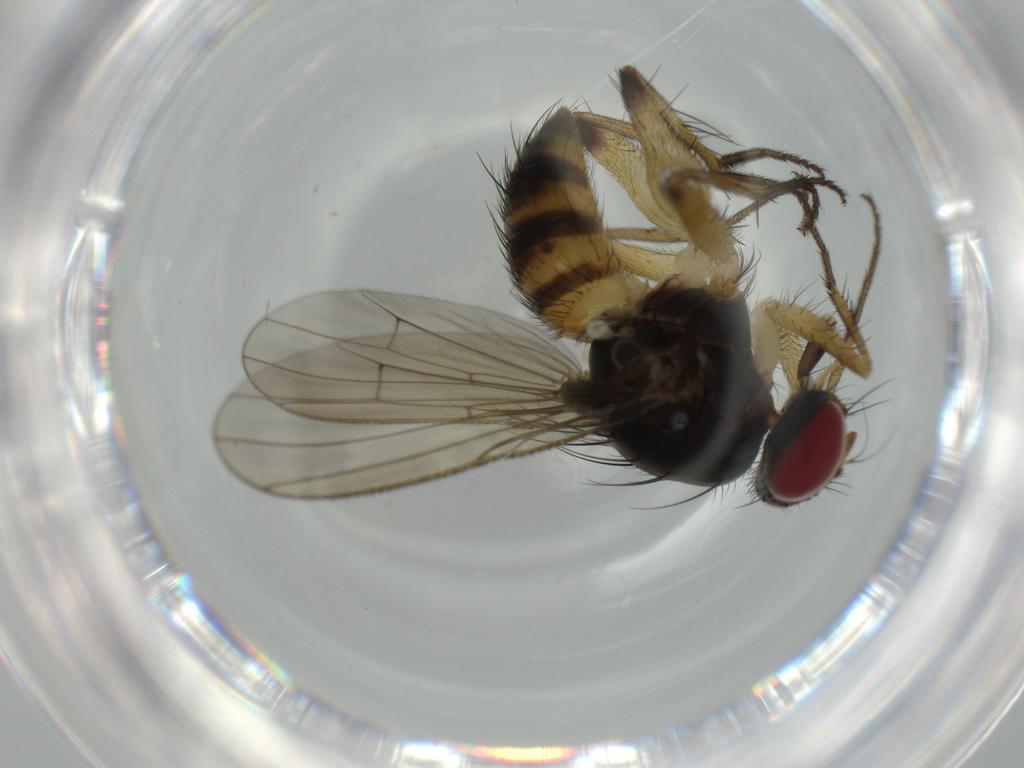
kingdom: Animalia
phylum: Arthropoda
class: Insecta
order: Diptera
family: Muscidae
